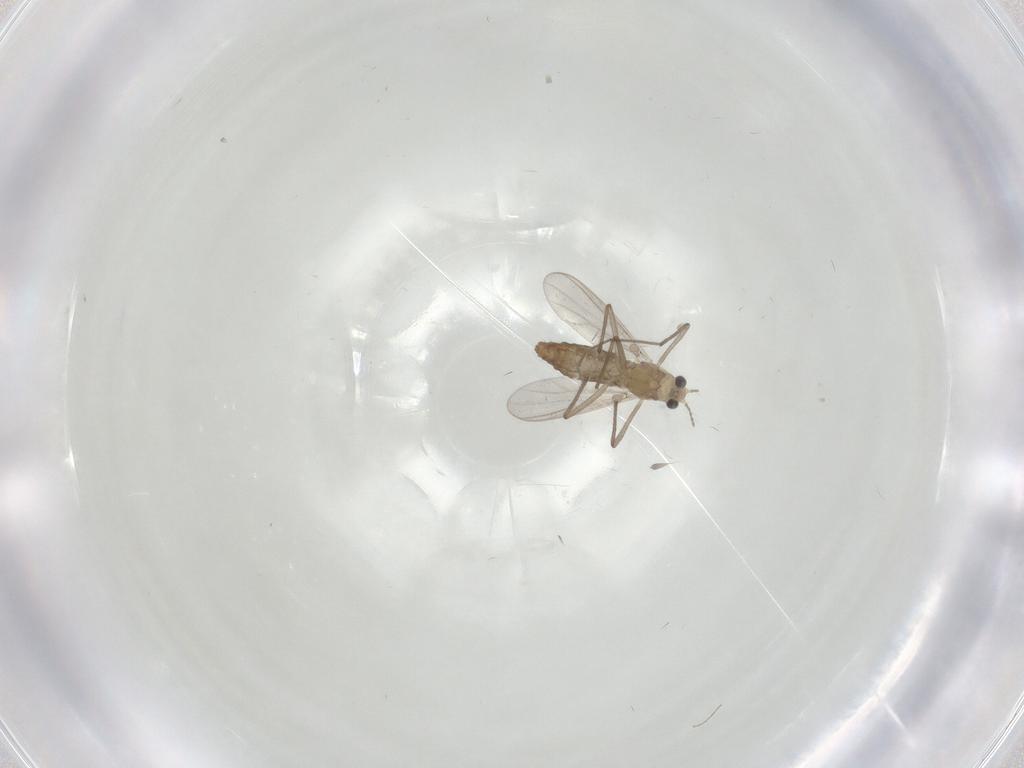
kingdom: Animalia
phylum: Arthropoda
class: Insecta
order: Diptera
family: Chironomidae
